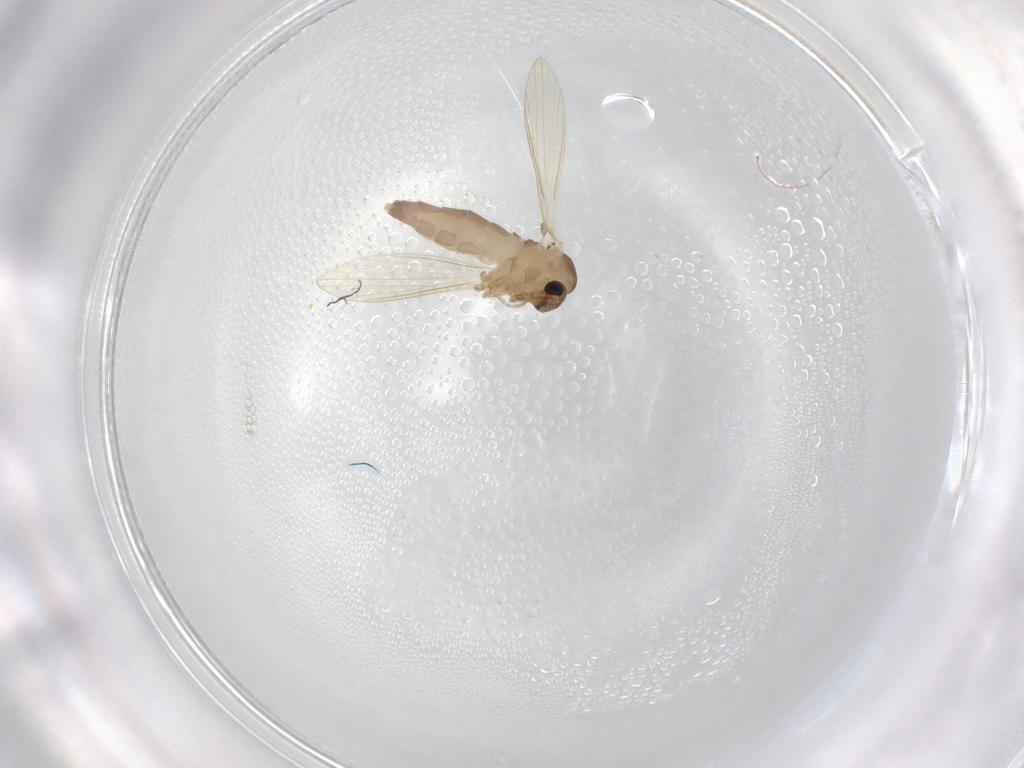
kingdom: Animalia
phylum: Arthropoda
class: Insecta
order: Diptera
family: Psychodidae
